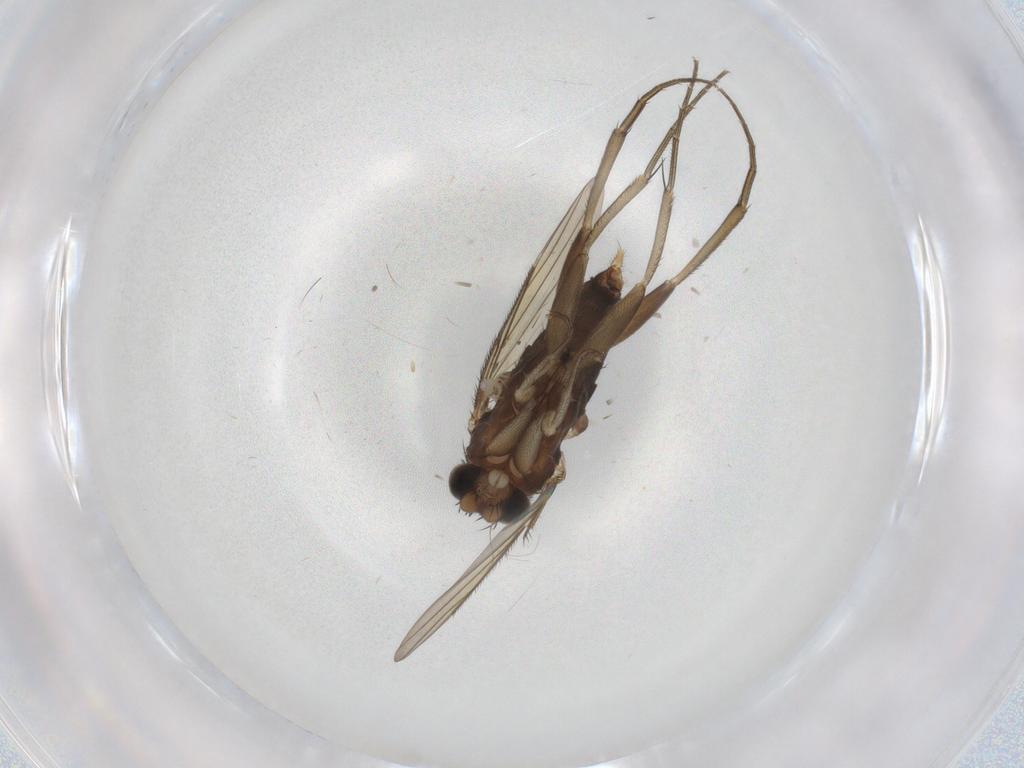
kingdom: Animalia
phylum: Arthropoda
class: Insecta
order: Diptera
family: Phoridae
